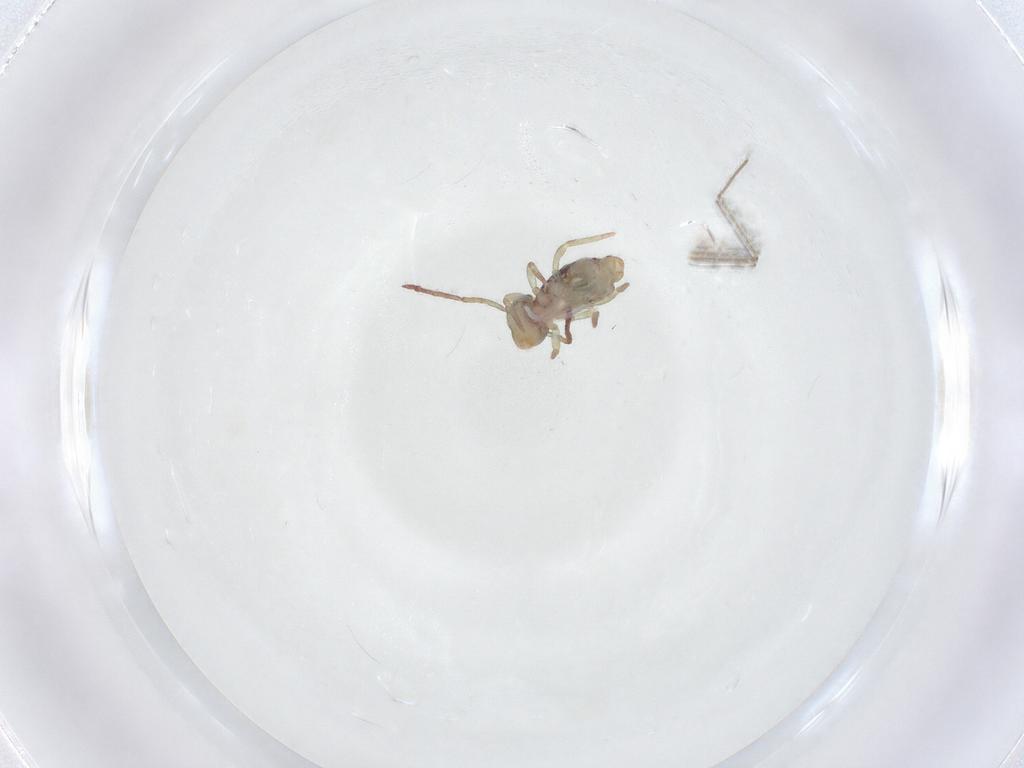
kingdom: Animalia
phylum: Arthropoda
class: Collembola
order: Symphypleona
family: Dicyrtomidae
